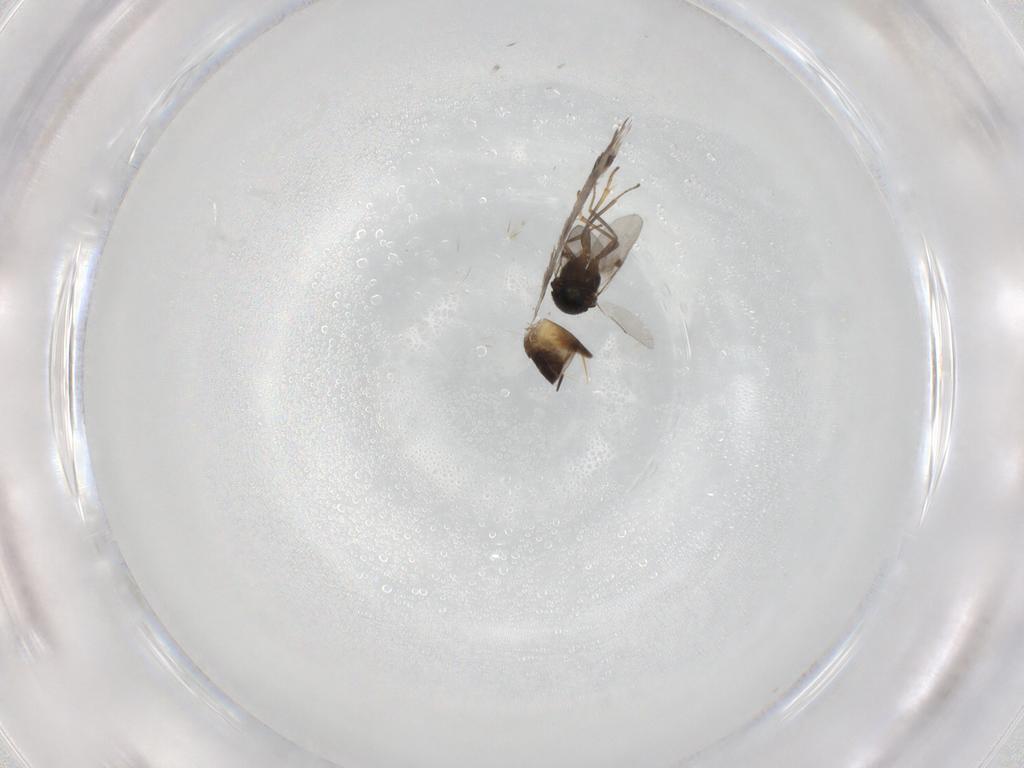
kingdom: Animalia
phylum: Arthropoda
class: Insecta
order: Hymenoptera
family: Encyrtidae
